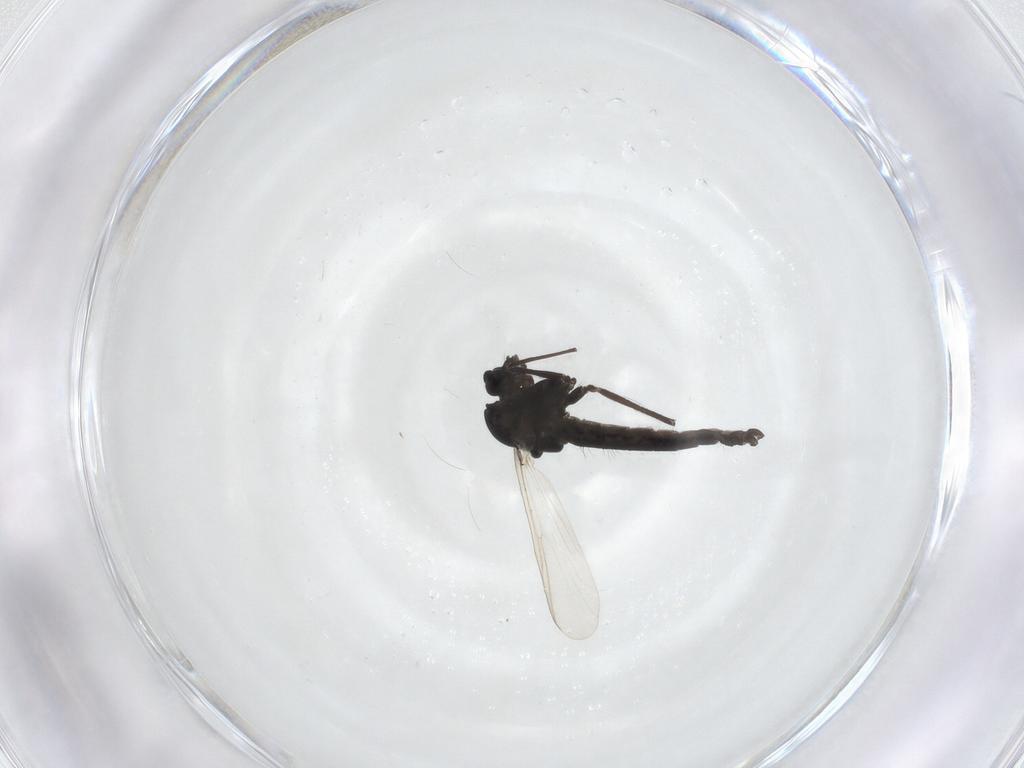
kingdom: Animalia
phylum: Arthropoda
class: Insecta
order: Diptera
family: Chironomidae
